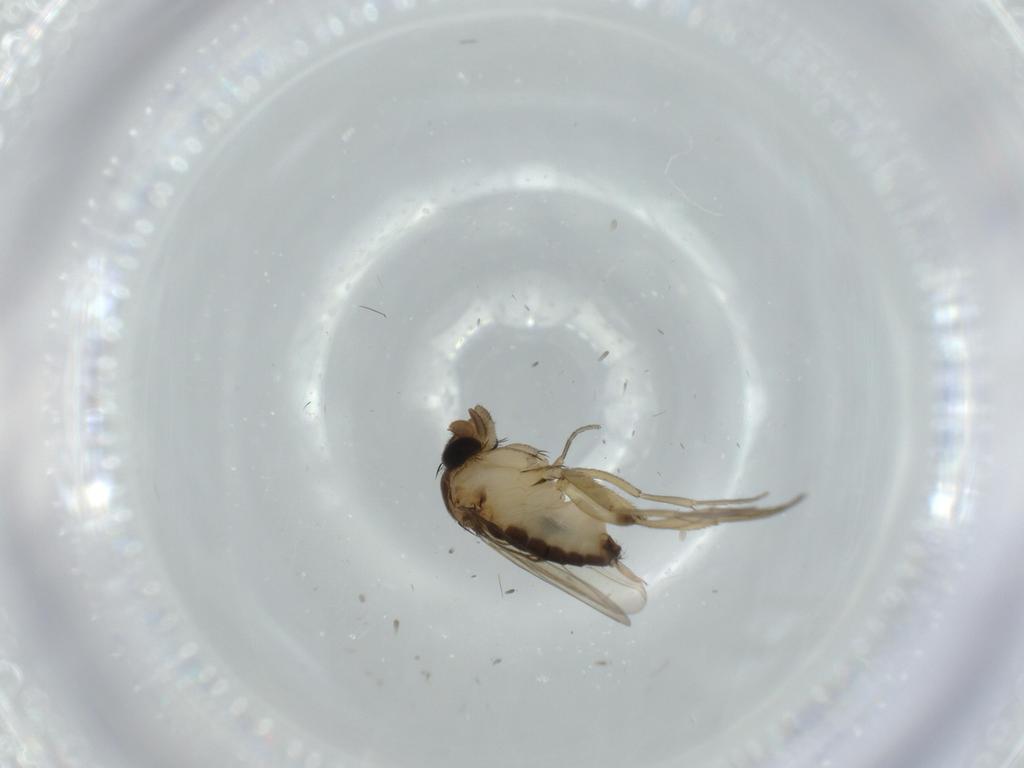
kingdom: Animalia
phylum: Arthropoda
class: Insecta
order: Diptera
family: Phoridae
